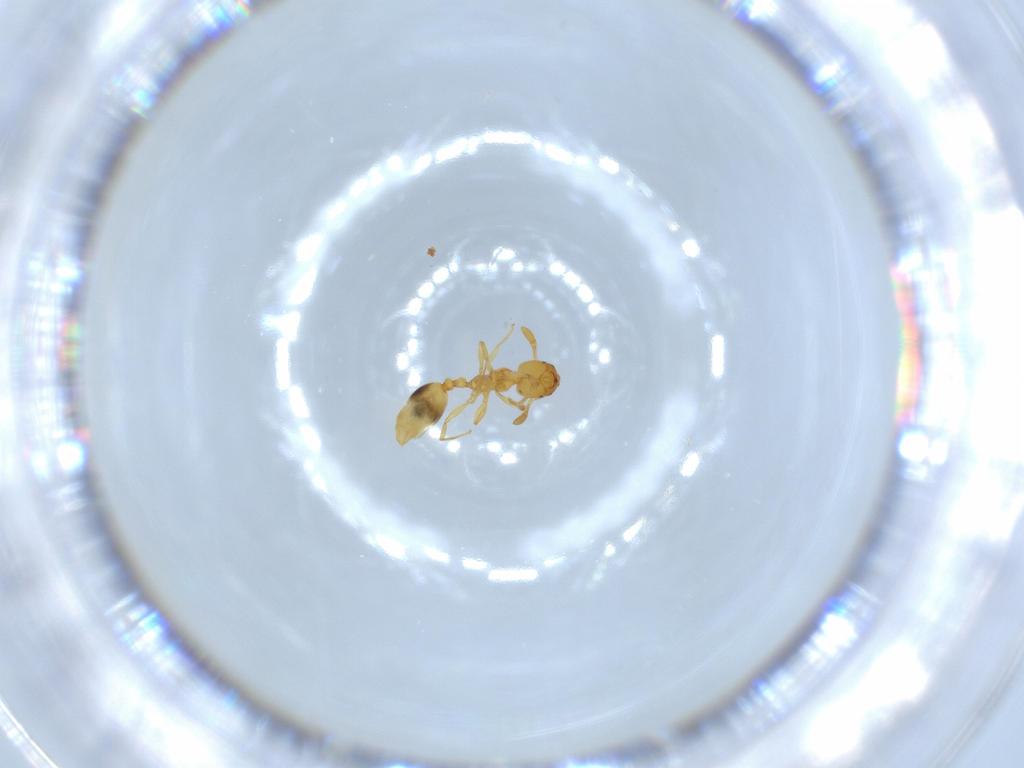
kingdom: Animalia
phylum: Arthropoda
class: Insecta
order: Hymenoptera
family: Formicidae
